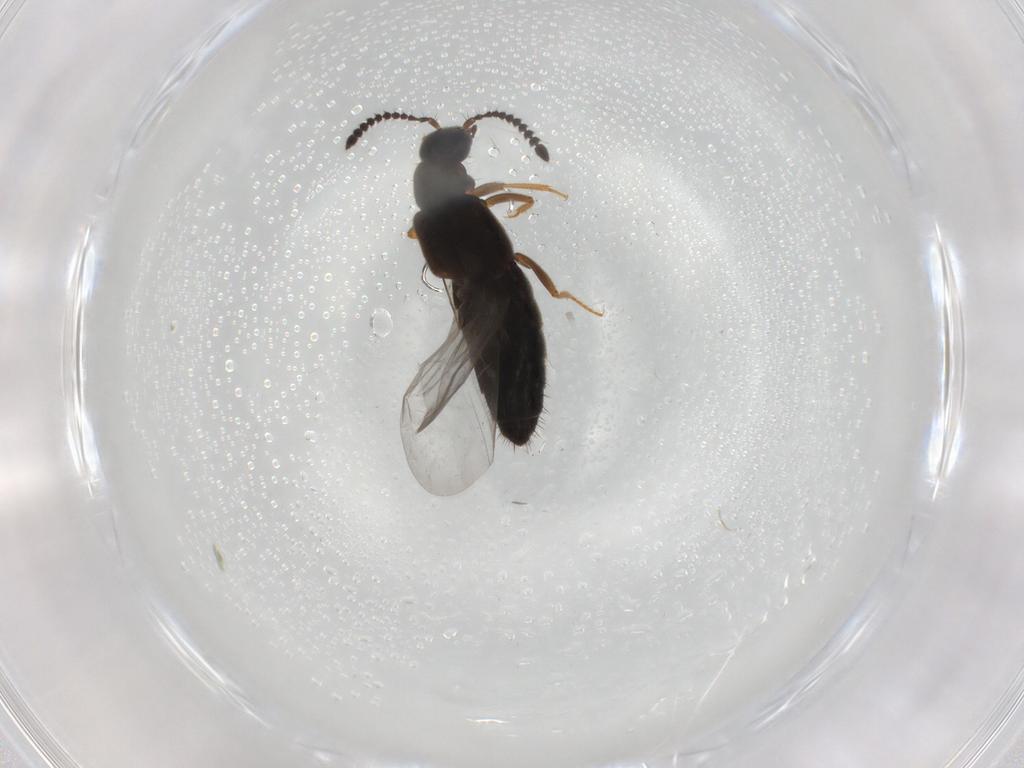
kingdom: Animalia
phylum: Arthropoda
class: Insecta
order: Coleoptera
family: Staphylinidae
